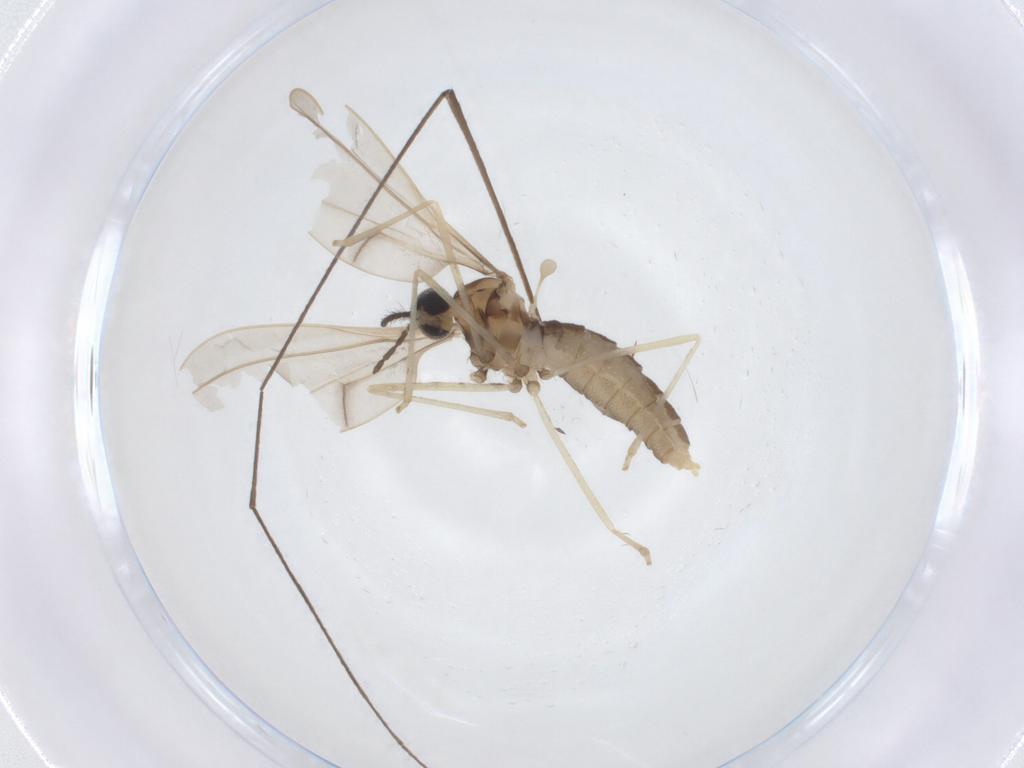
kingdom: Animalia
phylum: Arthropoda
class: Insecta
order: Diptera
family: Cecidomyiidae
